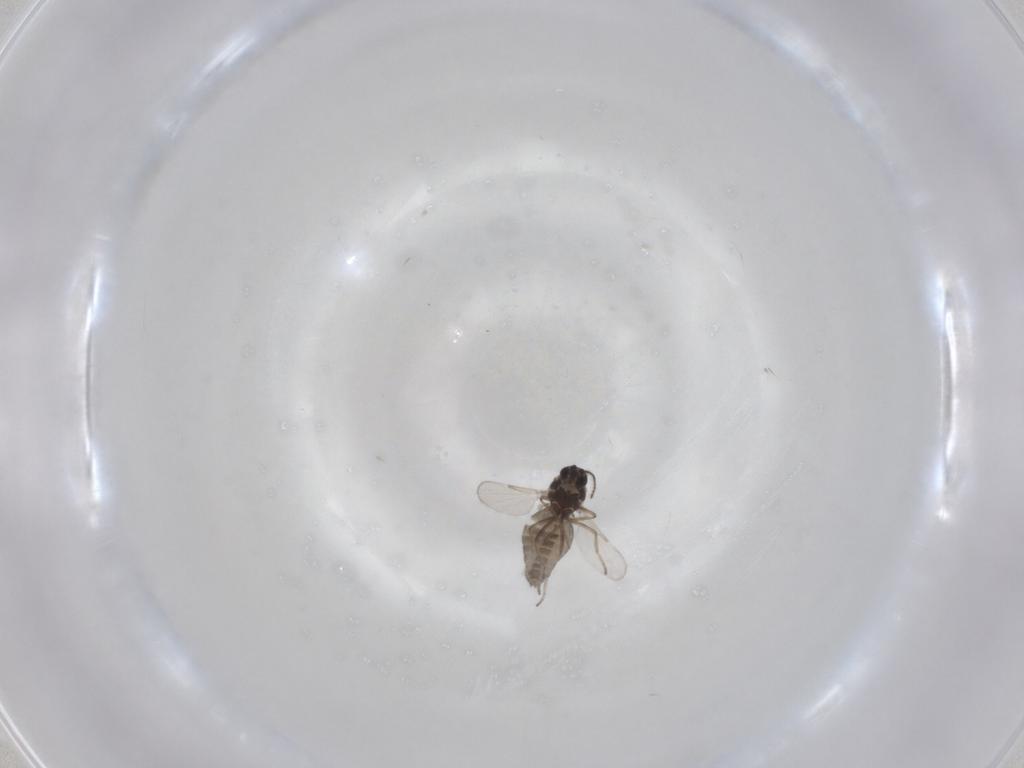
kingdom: Animalia
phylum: Arthropoda
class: Insecta
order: Diptera
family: Ceratopogonidae
